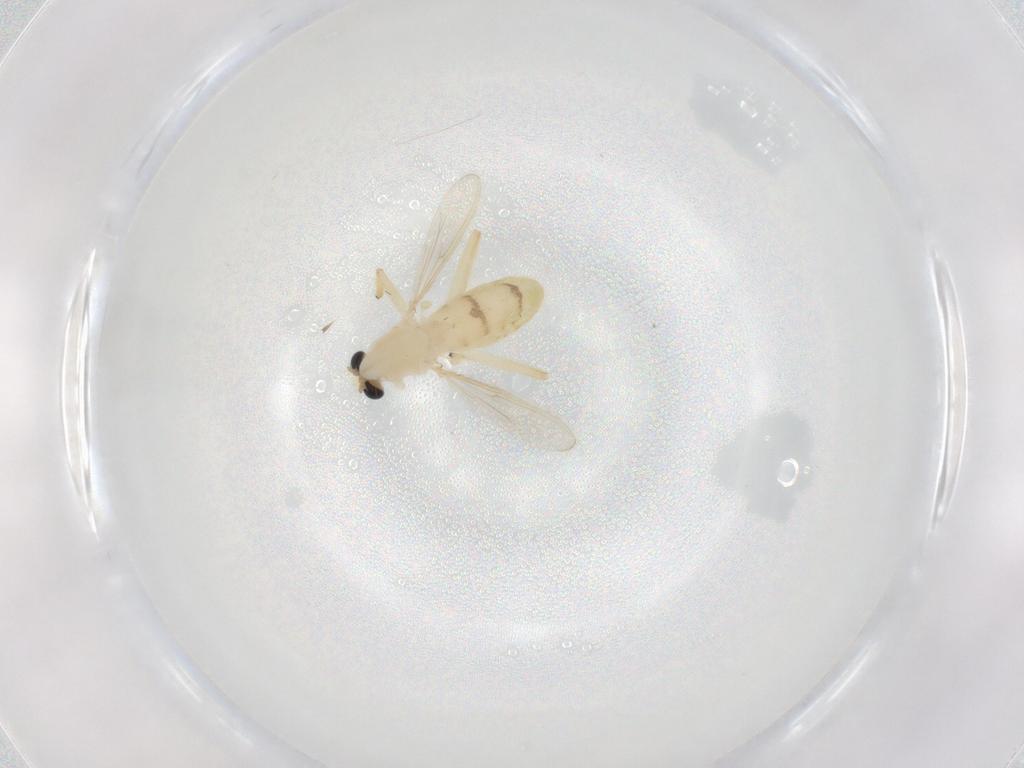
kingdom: Animalia
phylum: Arthropoda
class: Insecta
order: Diptera
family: Chironomidae
